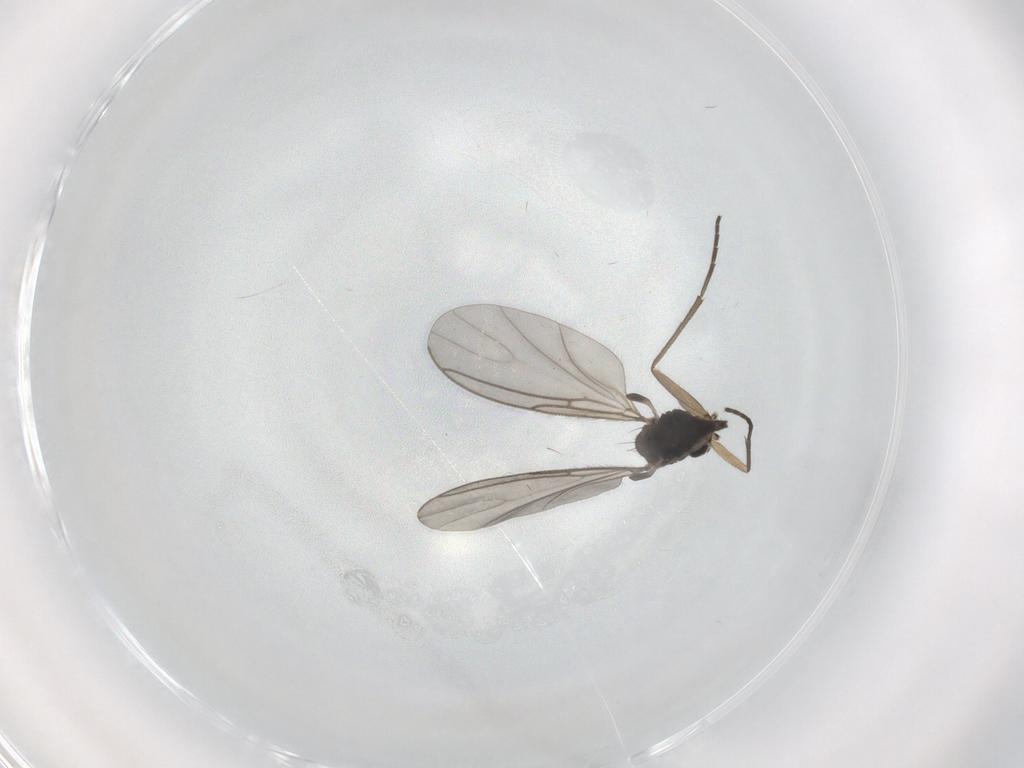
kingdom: Animalia
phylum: Arthropoda
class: Insecta
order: Diptera
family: Sciaridae
